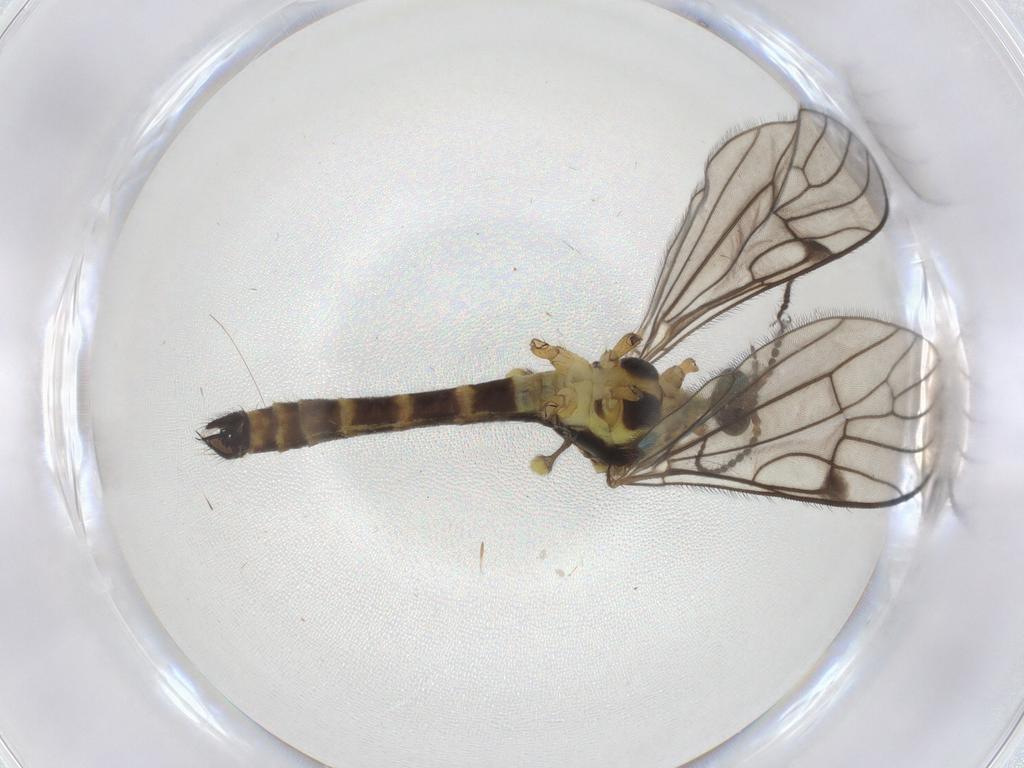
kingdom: Animalia
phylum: Arthropoda
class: Insecta
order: Diptera
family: Limoniidae
